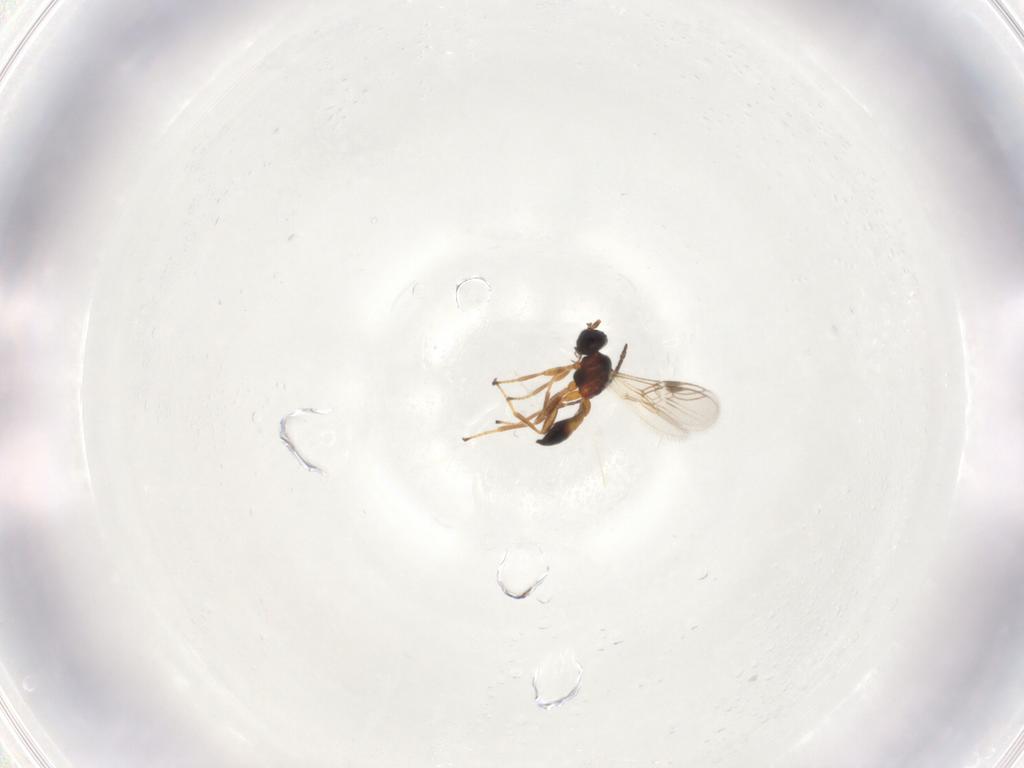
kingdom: Animalia
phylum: Arthropoda
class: Insecta
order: Hymenoptera
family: Braconidae
